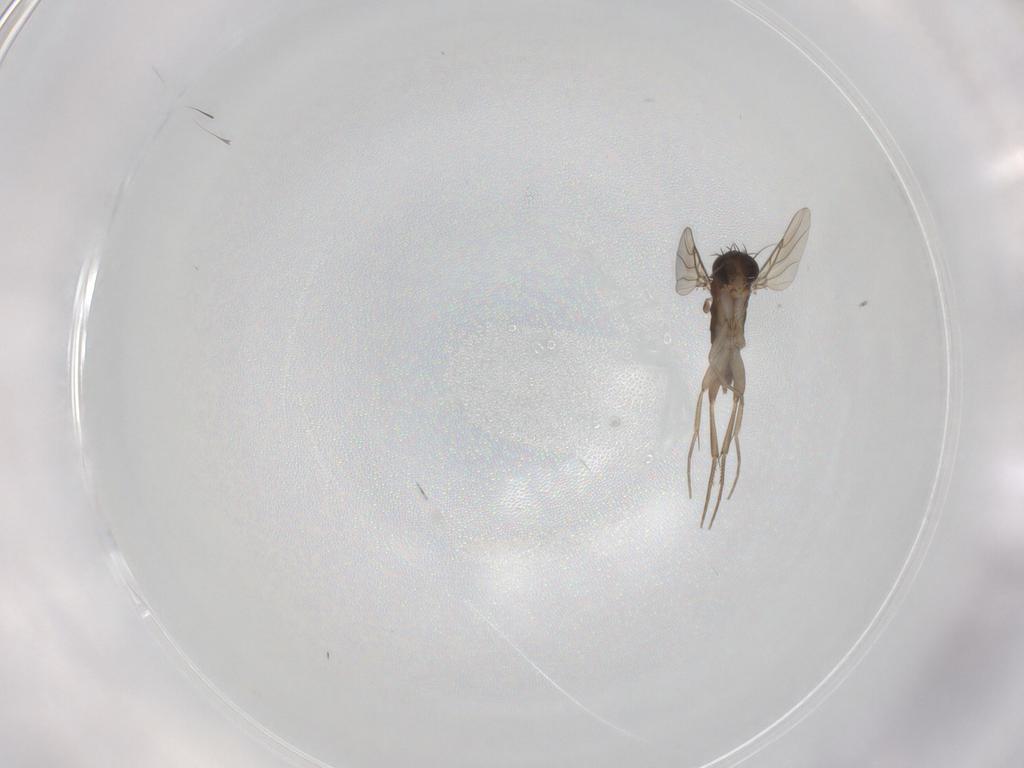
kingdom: Animalia
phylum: Arthropoda
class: Insecta
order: Diptera
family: Phoridae
